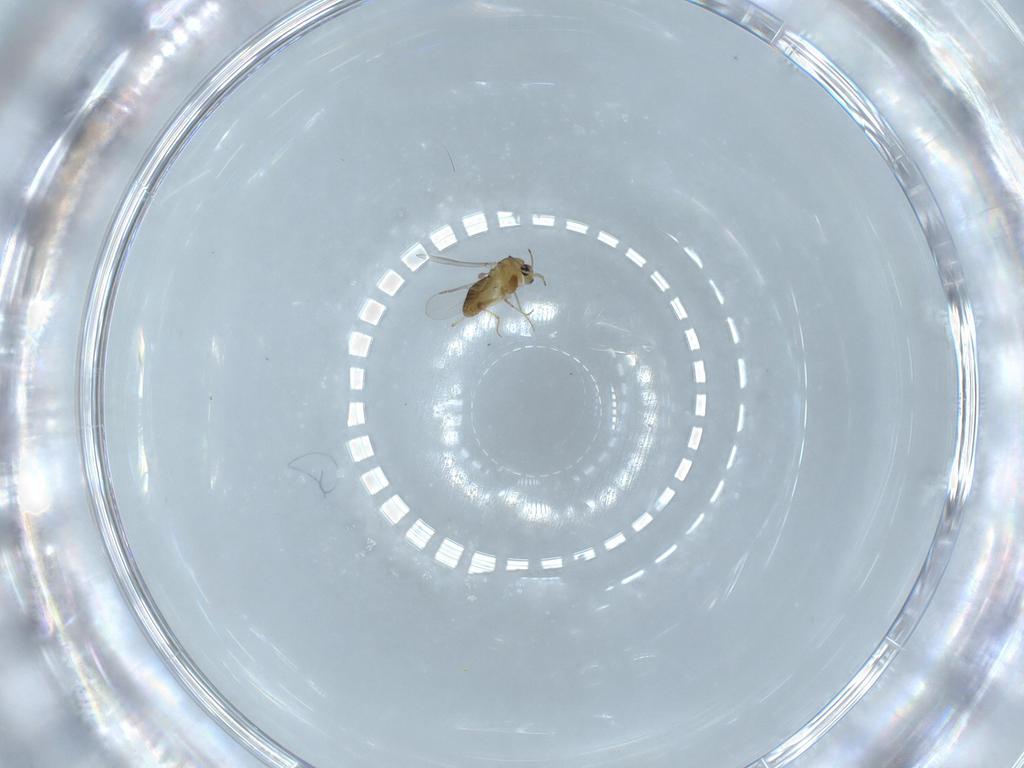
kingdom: Animalia
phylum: Arthropoda
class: Insecta
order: Diptera
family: Chironomidae
